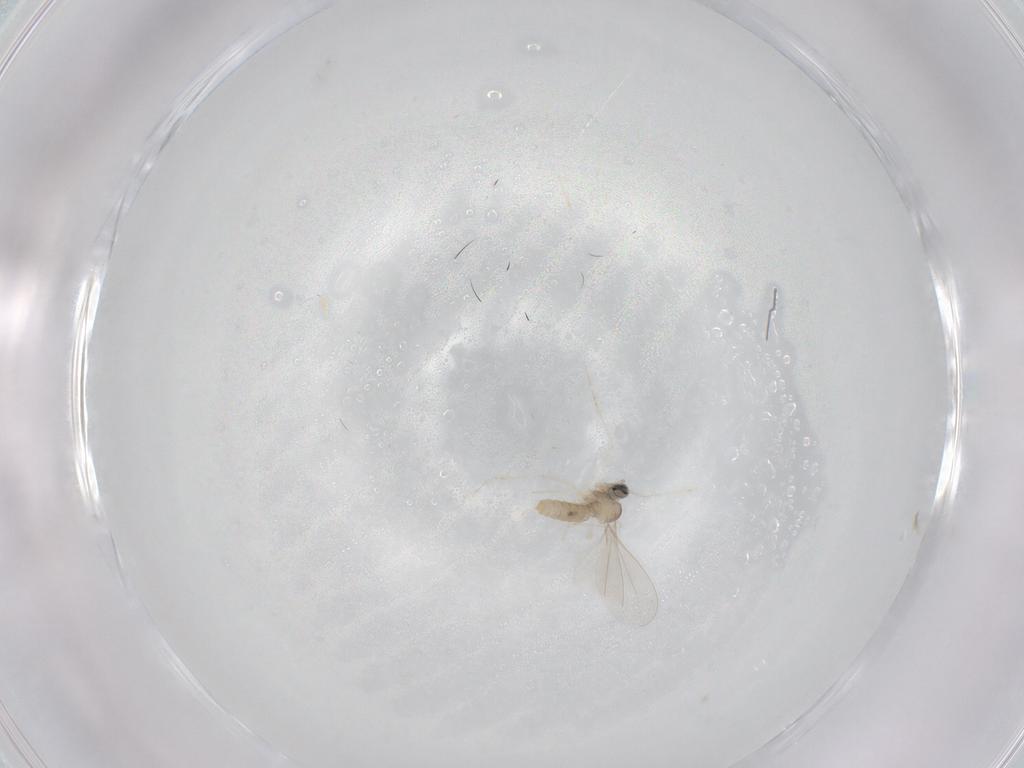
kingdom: Animalia
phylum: Arthropoda
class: Insecta
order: Diptera
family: Cecidomyiidae
